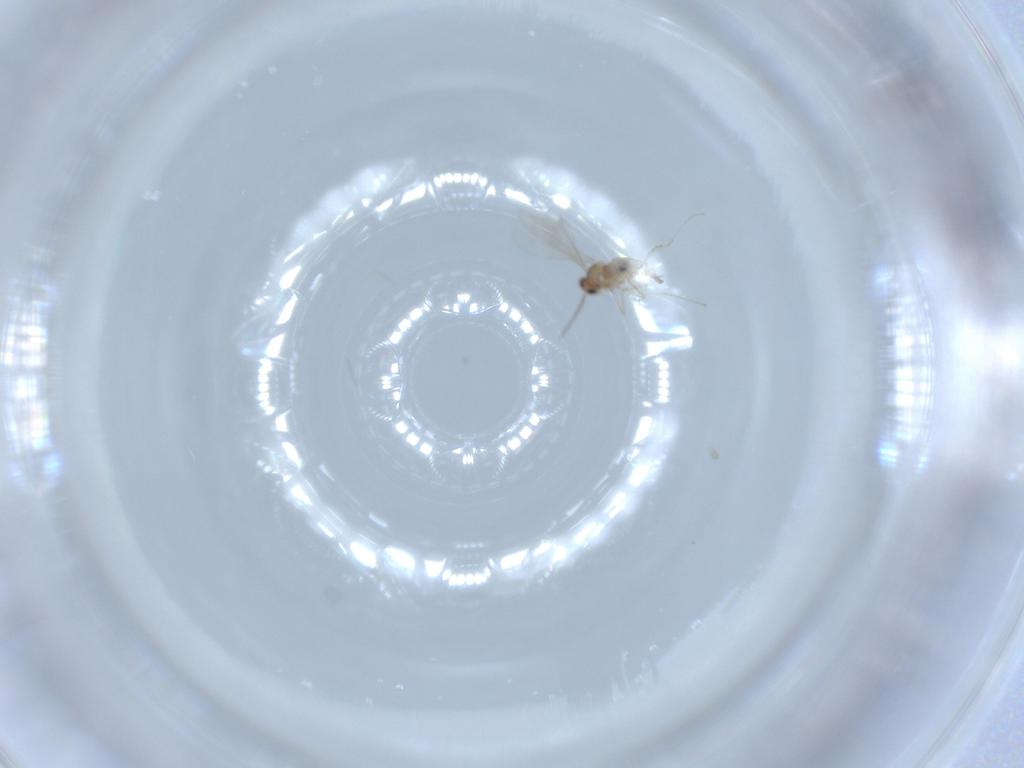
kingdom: Animalia
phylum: Arthropoda
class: Insecta
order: Diptera
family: Cecidomyiidae
